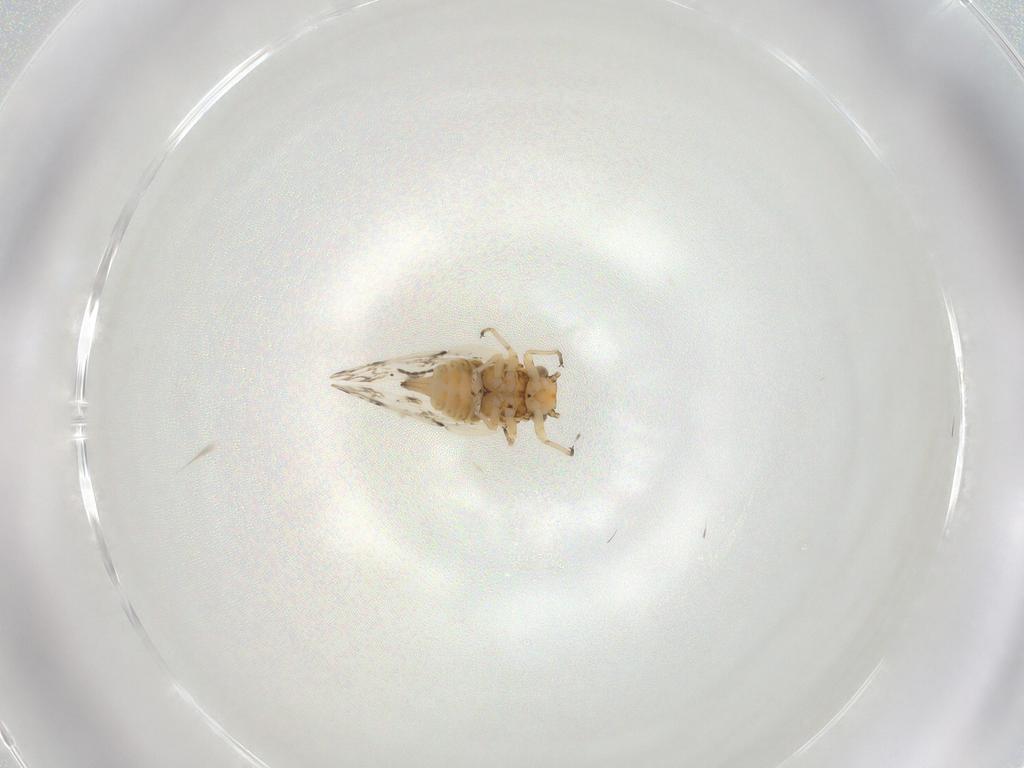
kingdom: Animalia
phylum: Arthropoda
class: Insecta
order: Hemiptera
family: Achilidae
